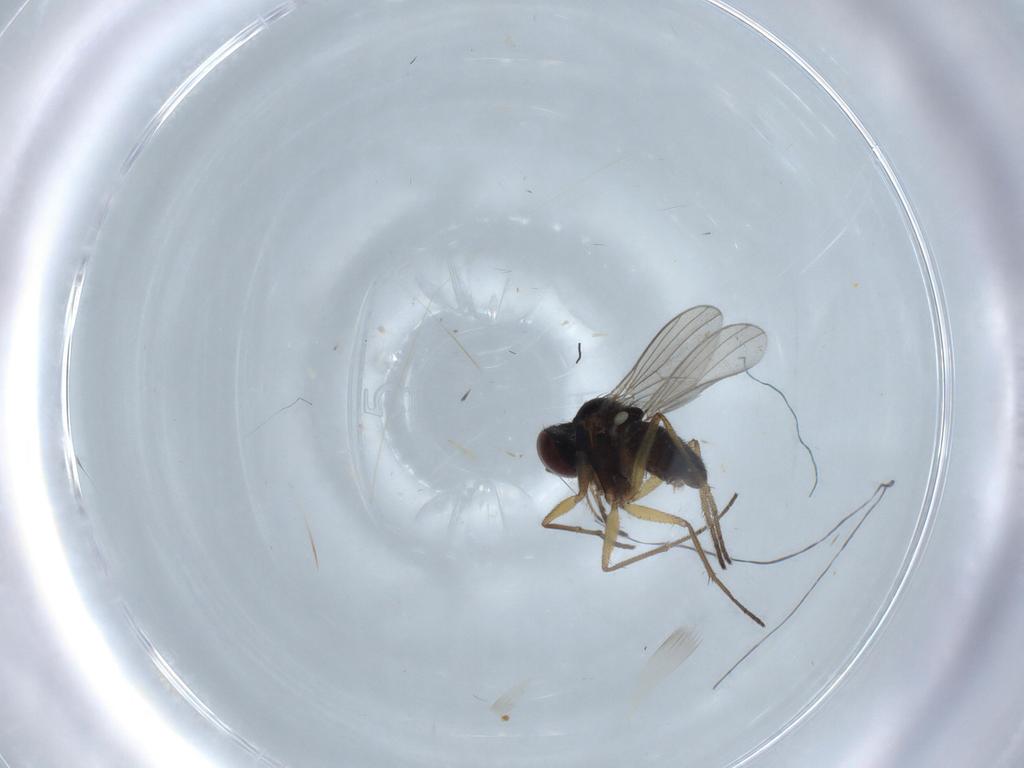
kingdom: Animalia
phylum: Arthropoda
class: Insecta
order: Diptera
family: Dolichopodidae
